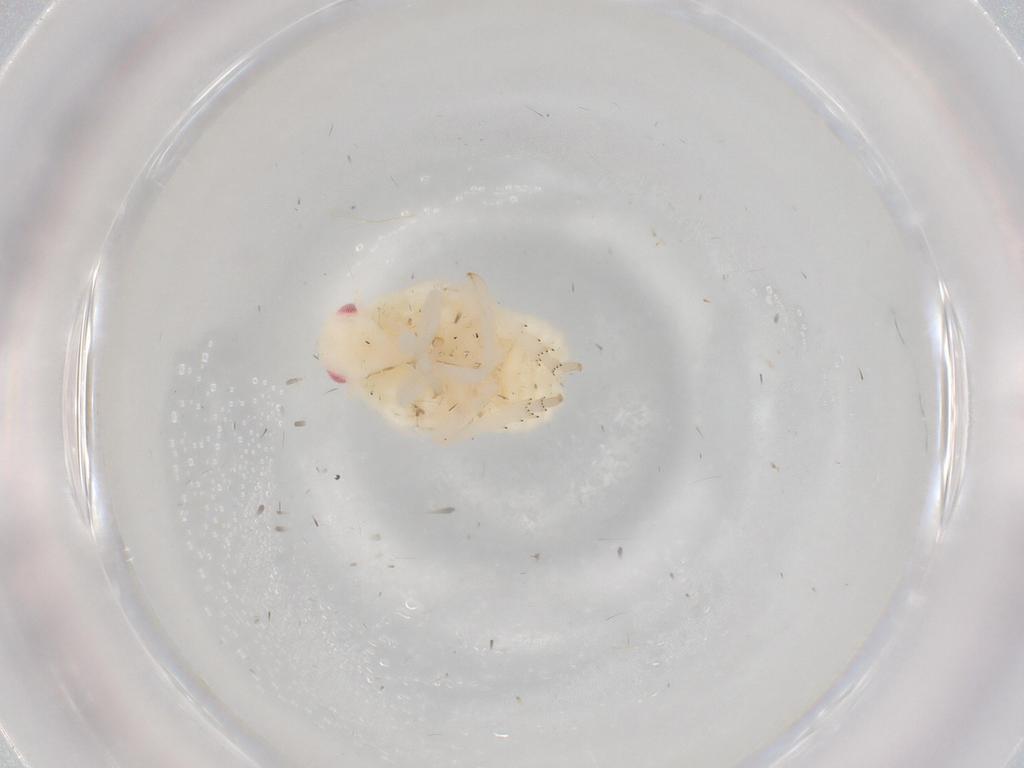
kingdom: Animalia
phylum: Arthropoda
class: Insecta
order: Hemiptera
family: Flatidae
